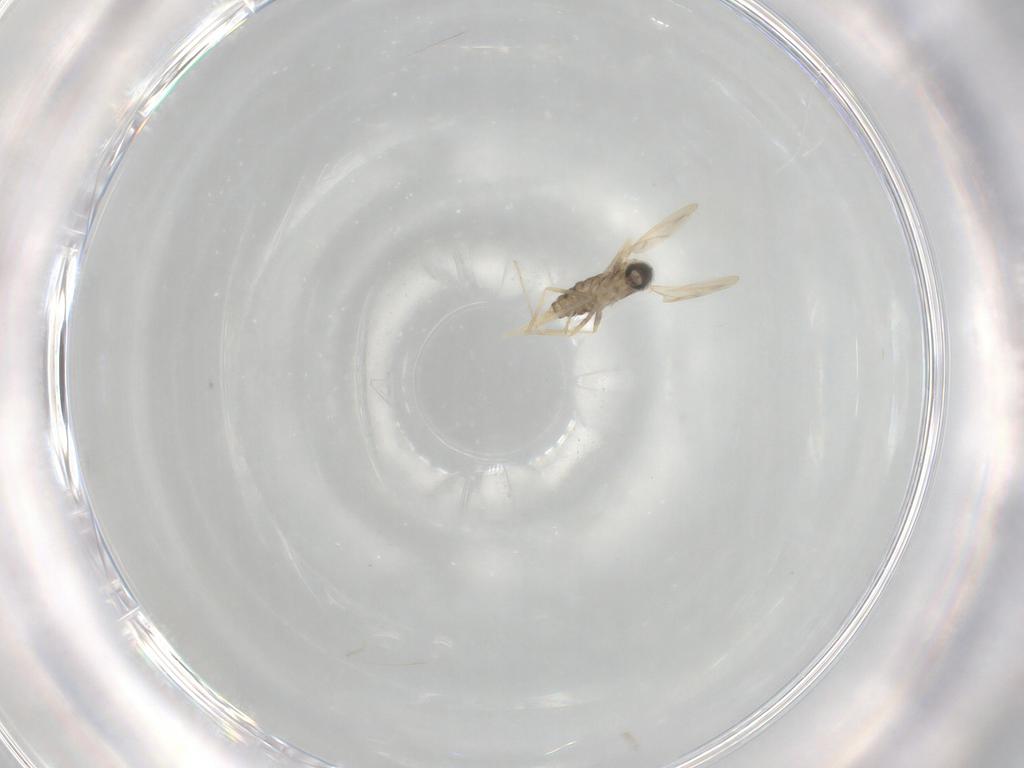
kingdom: Animalia
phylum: Arthropoda
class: Insecta
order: Diptera
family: Cecidomyiidae
